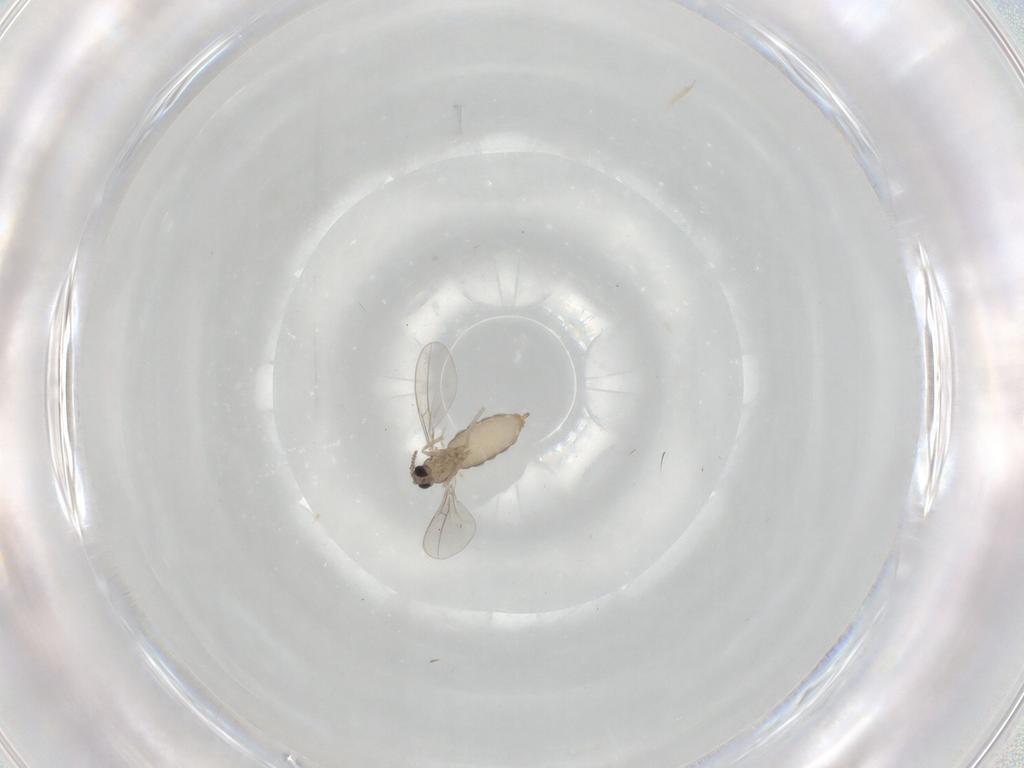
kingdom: Animalia
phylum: Arthropoda
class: Insecta
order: Diptera
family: Cecidomyiidae
